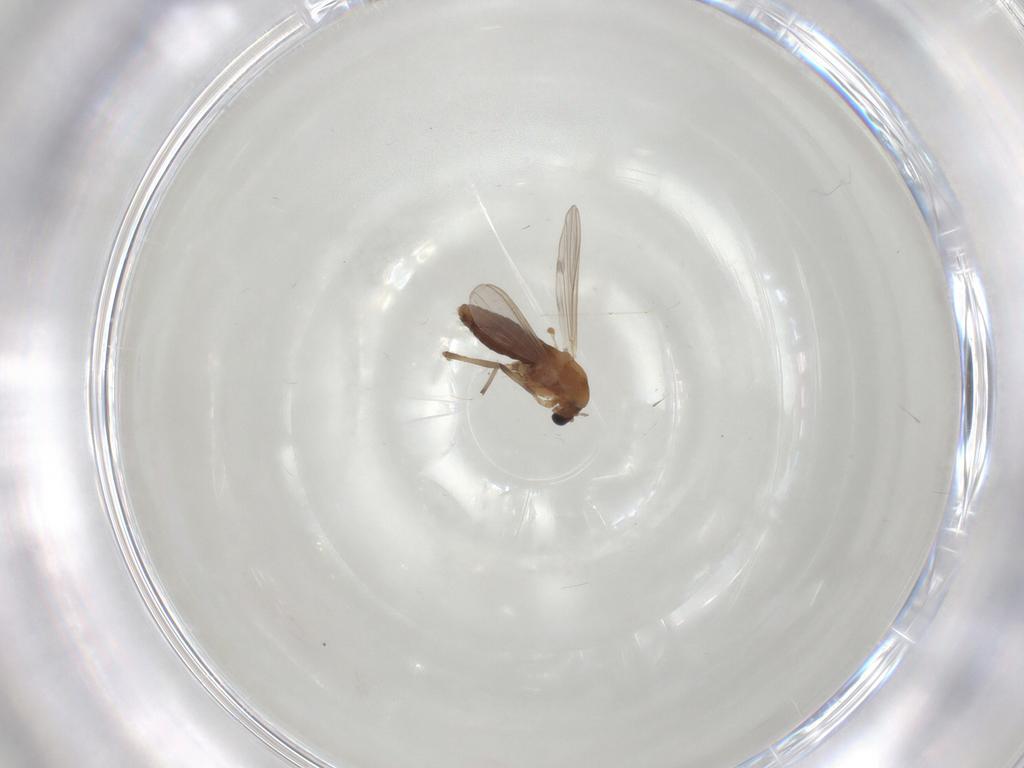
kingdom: Animalia
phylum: Arthropoda
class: Insecta
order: Diptera
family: Chironomidae
